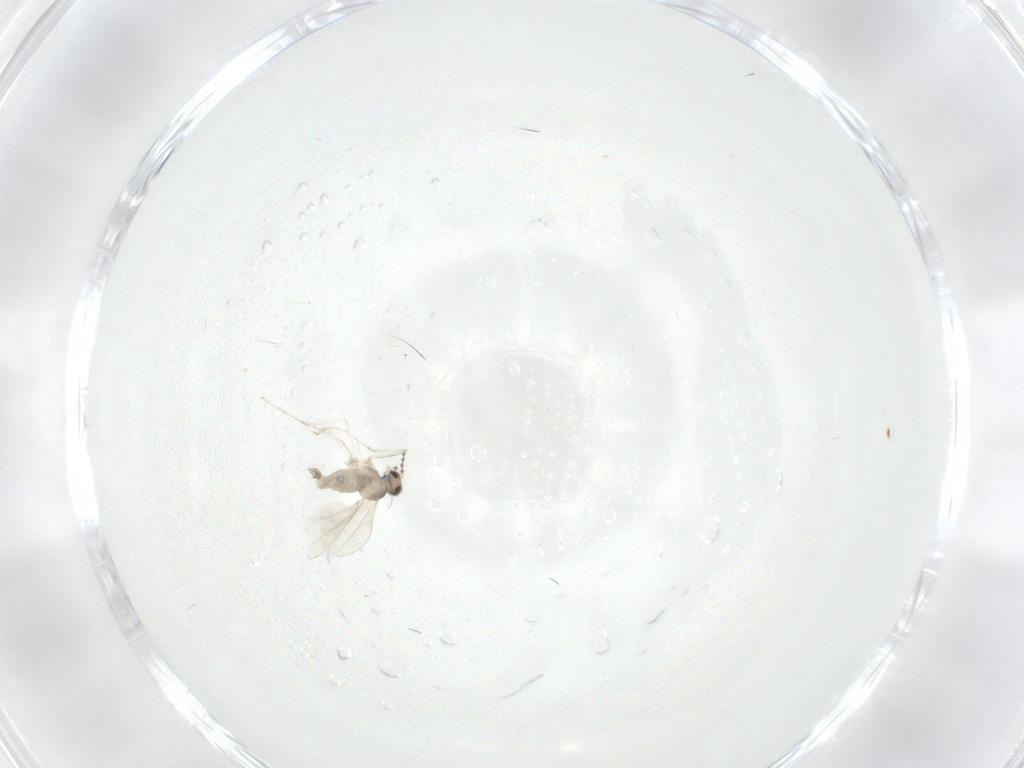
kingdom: Animalia
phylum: Arthropoda
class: Insecta
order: Diptera
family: Cecidomyiidae
